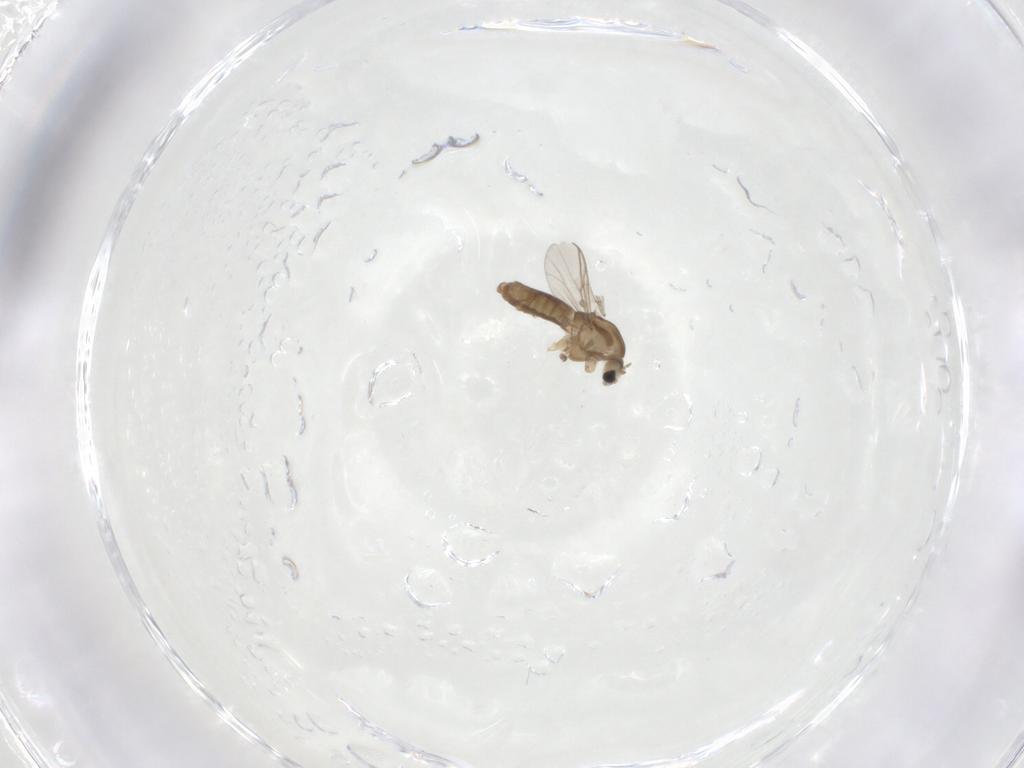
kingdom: Animalia
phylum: Arthropoda
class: Insecta
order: Diptera
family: Chironomidae
